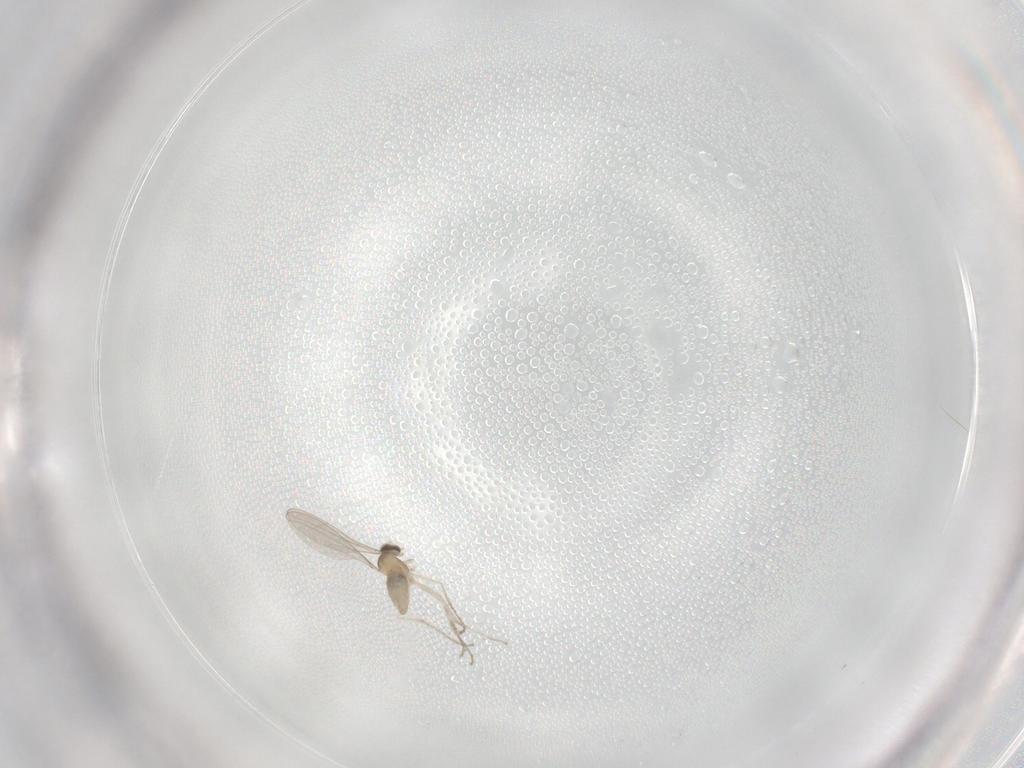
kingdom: Animalia
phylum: Arthropoda
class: Insecta
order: Diptera
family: Cecidomyiidae
